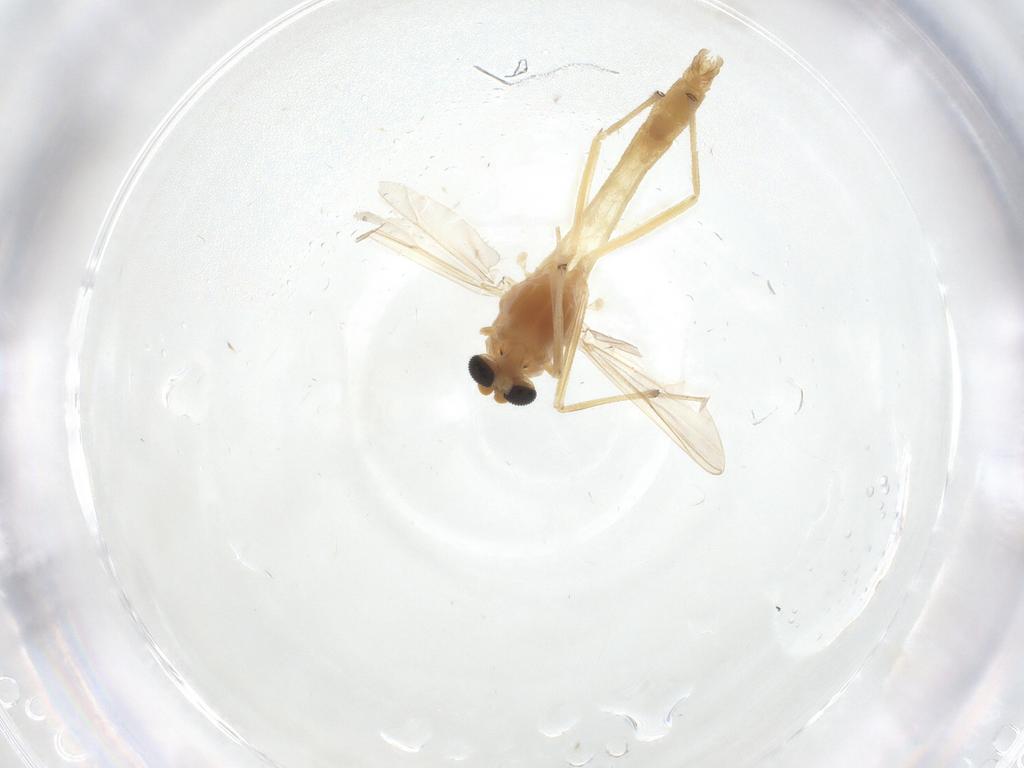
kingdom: Animalia
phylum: Arthropoda
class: Insecta
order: Diptera
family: Chironomidae
